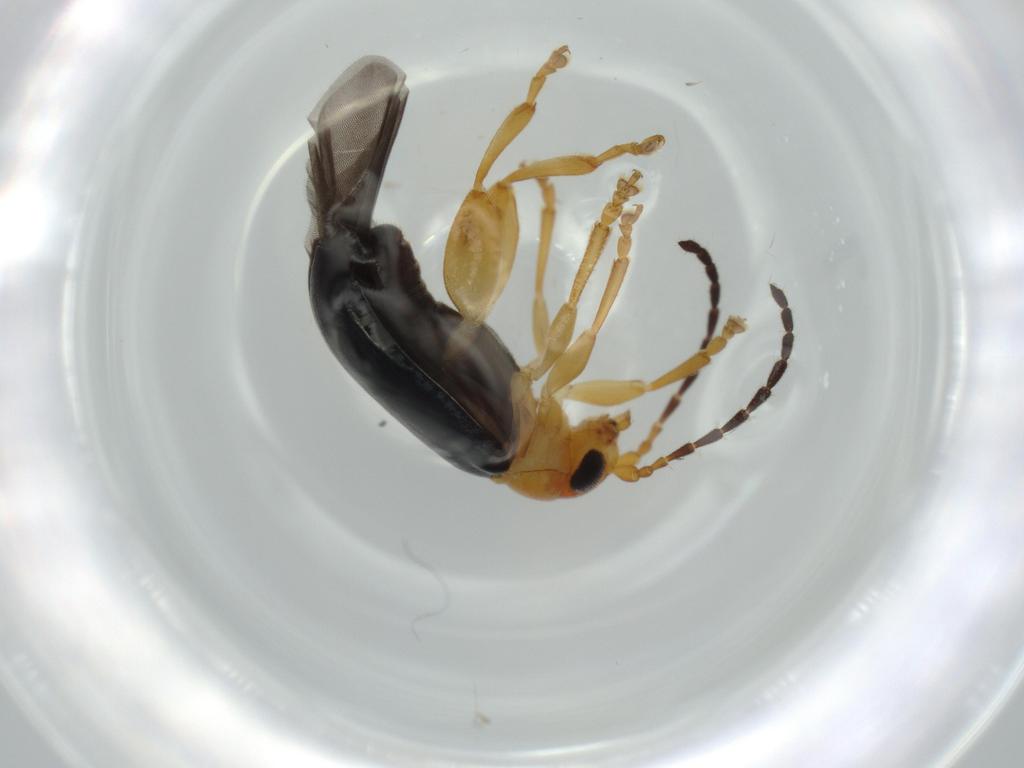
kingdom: Animalia
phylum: Arthropoda
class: Insecta
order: Coleoptera
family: Chrysomelidae
